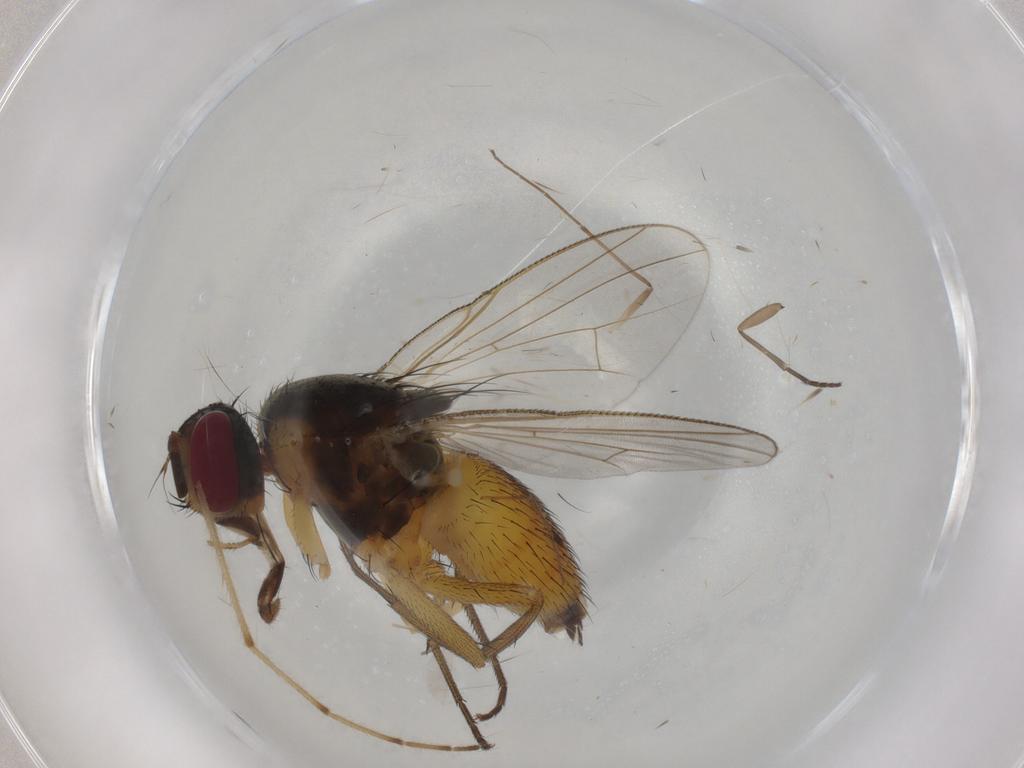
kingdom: Animalia
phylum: Arthropoda
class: Insecta
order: Diptera
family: Muscidae
